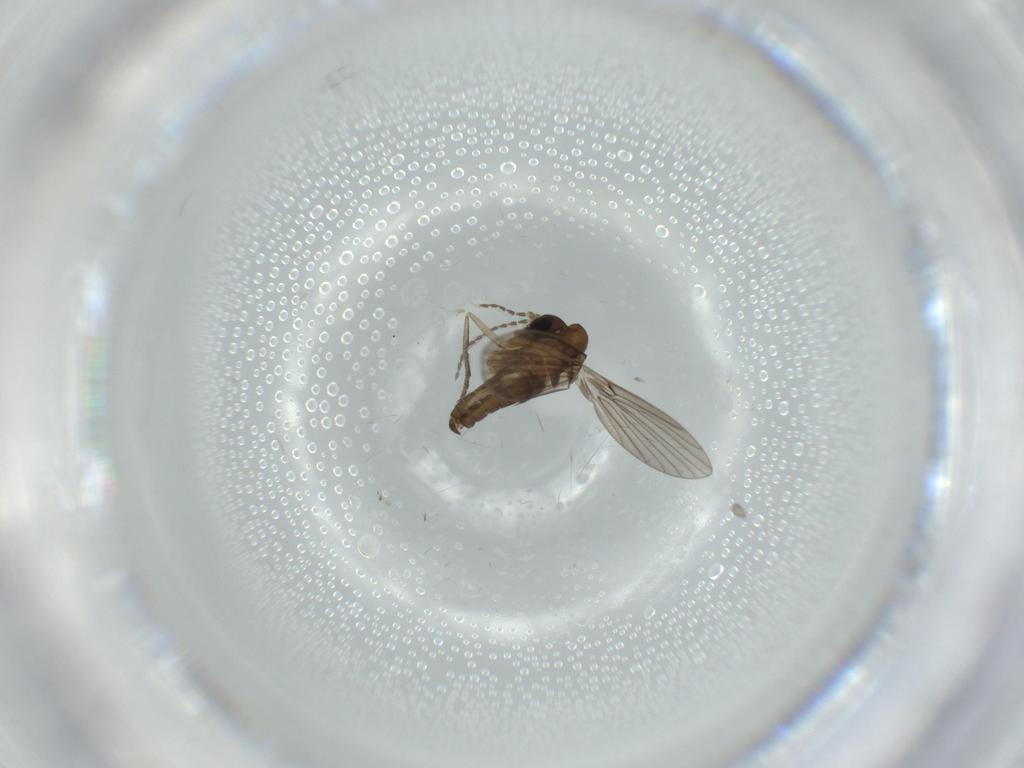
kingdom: Animalia
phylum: Arthropoda
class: Insecta
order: Diptera
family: Psychodidae
